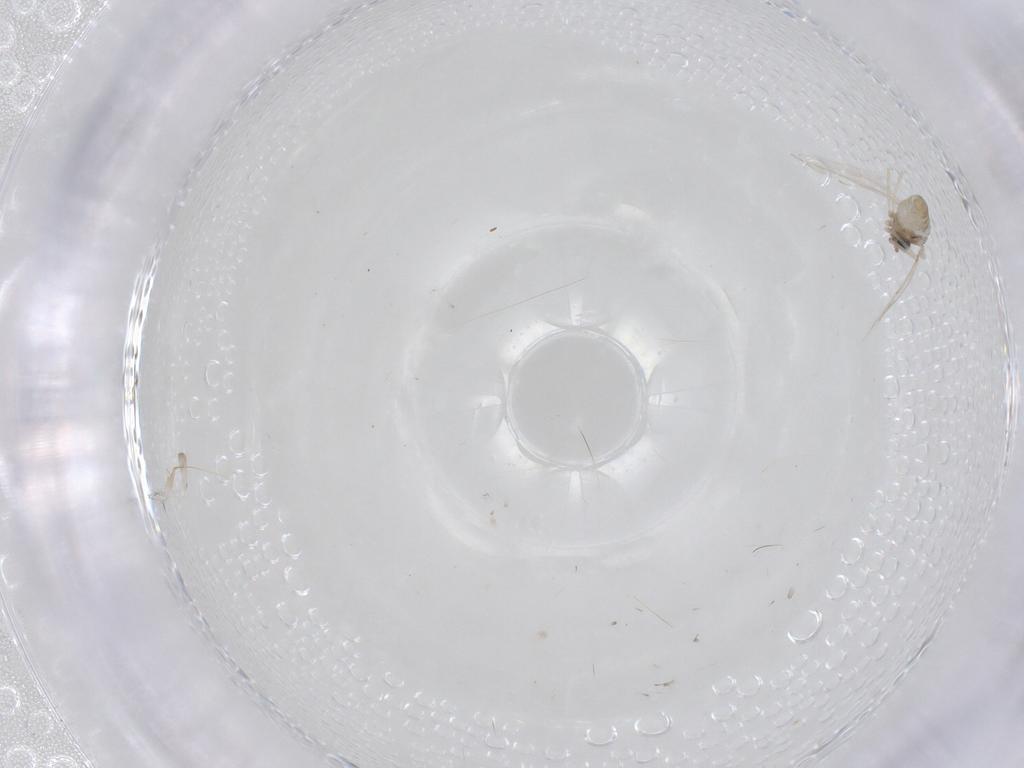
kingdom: Animalia
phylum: Arthropoda
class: Insecta
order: Diptera
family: Cecidomyiidae
